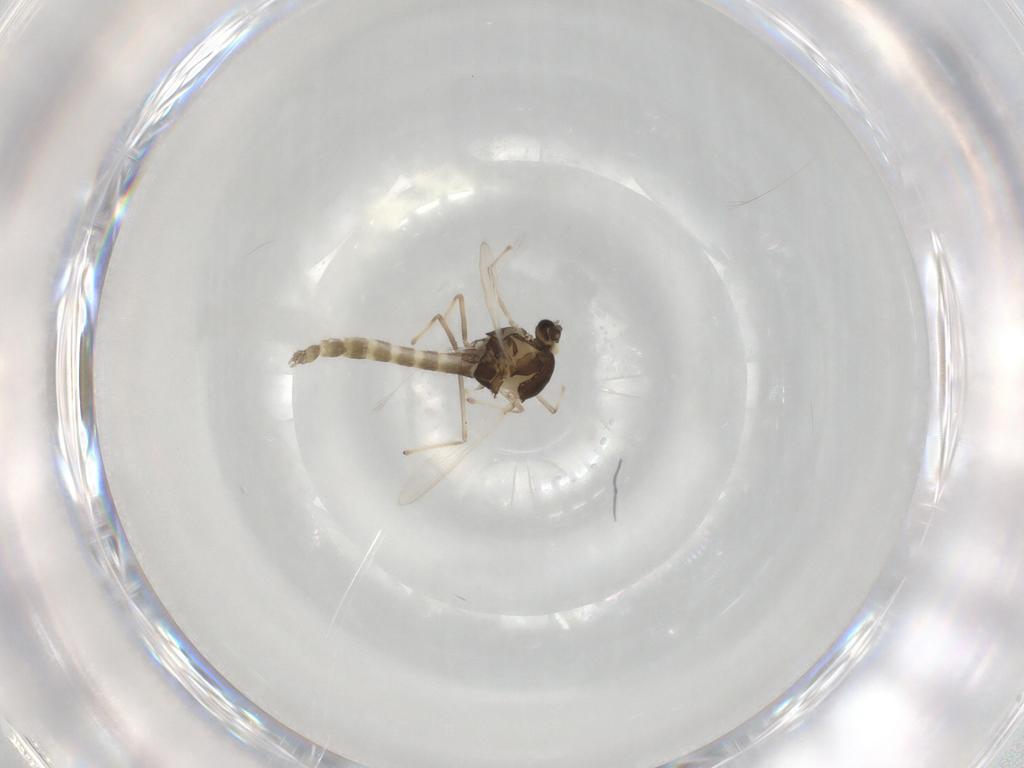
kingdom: Animalia
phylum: Arthropoda
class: Insecta
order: Diptera
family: Chironomidae
